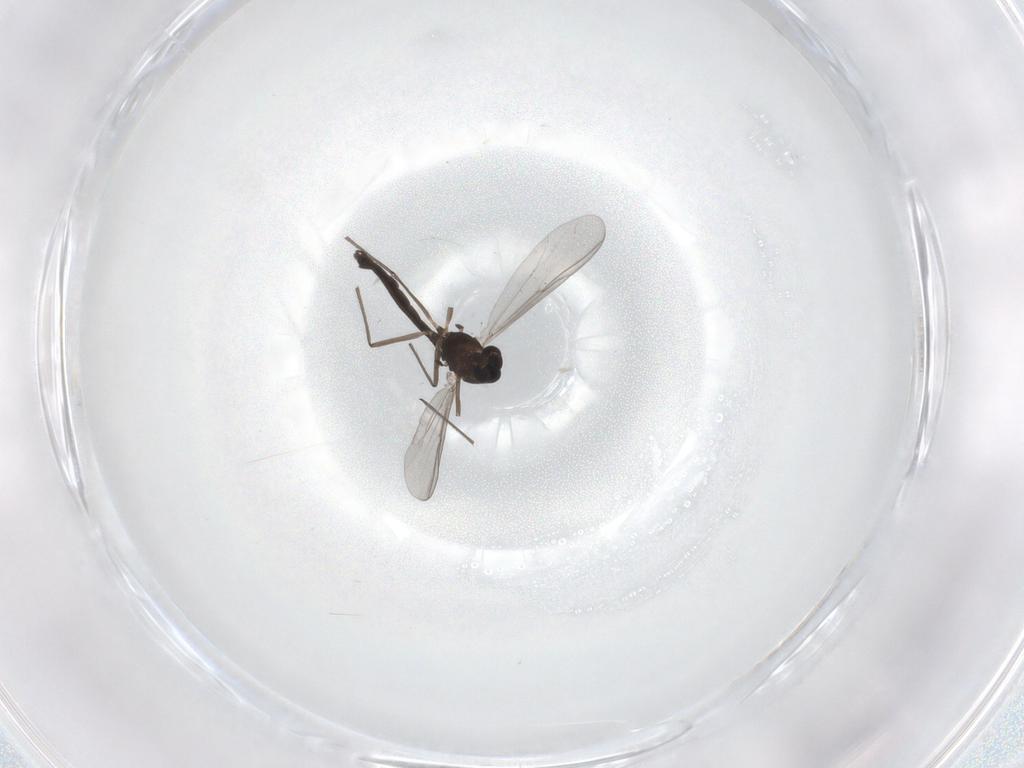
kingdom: Animalia
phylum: Arthropoda
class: Insecta
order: Diptera
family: Chironomidae
